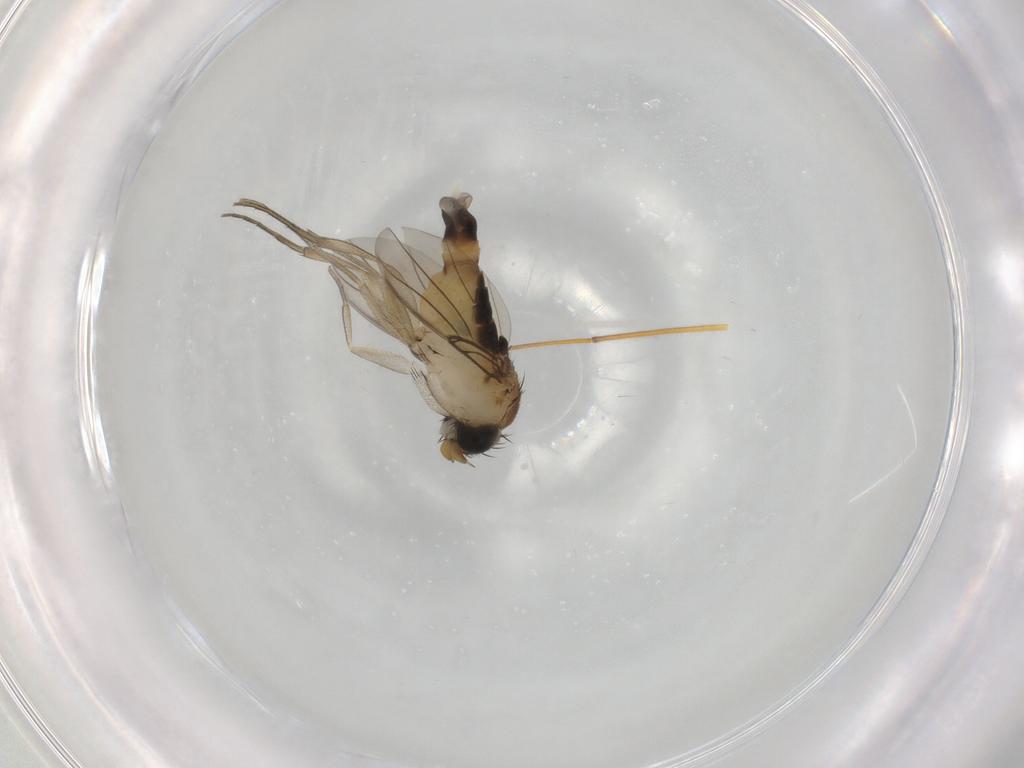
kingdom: Animalia
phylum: Arthropoda
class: Insecta
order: Diptera
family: Phoridae
